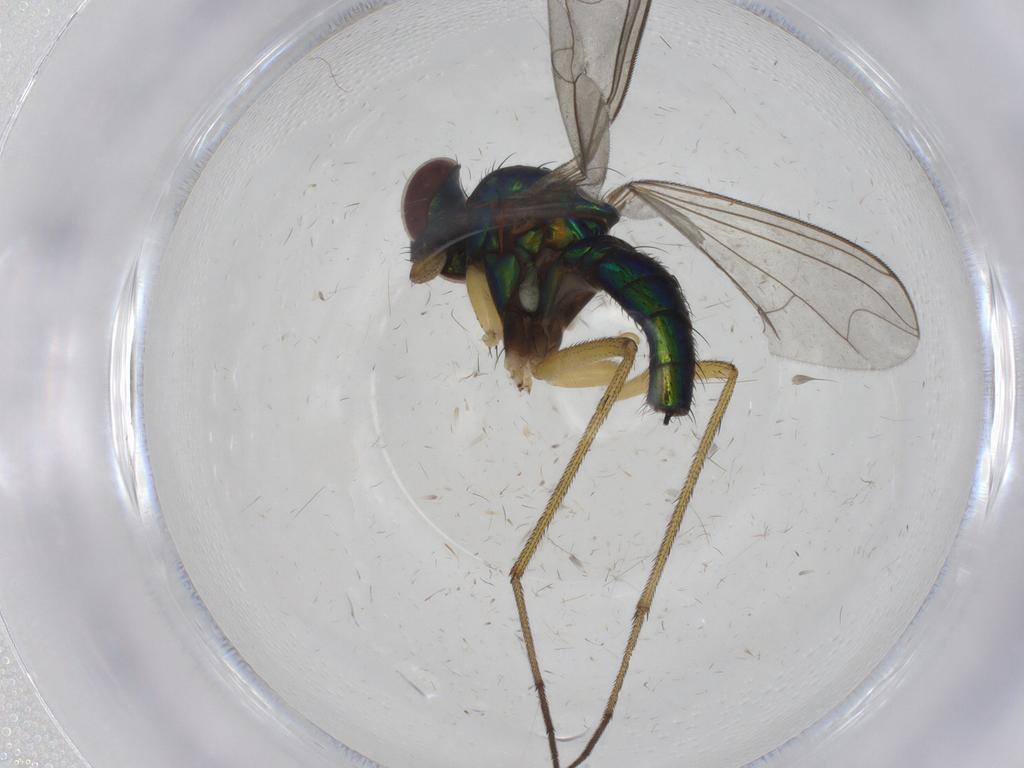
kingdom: Animalia
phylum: Arthropoda
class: Insecta
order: Diptera
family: Dolichopodidae
